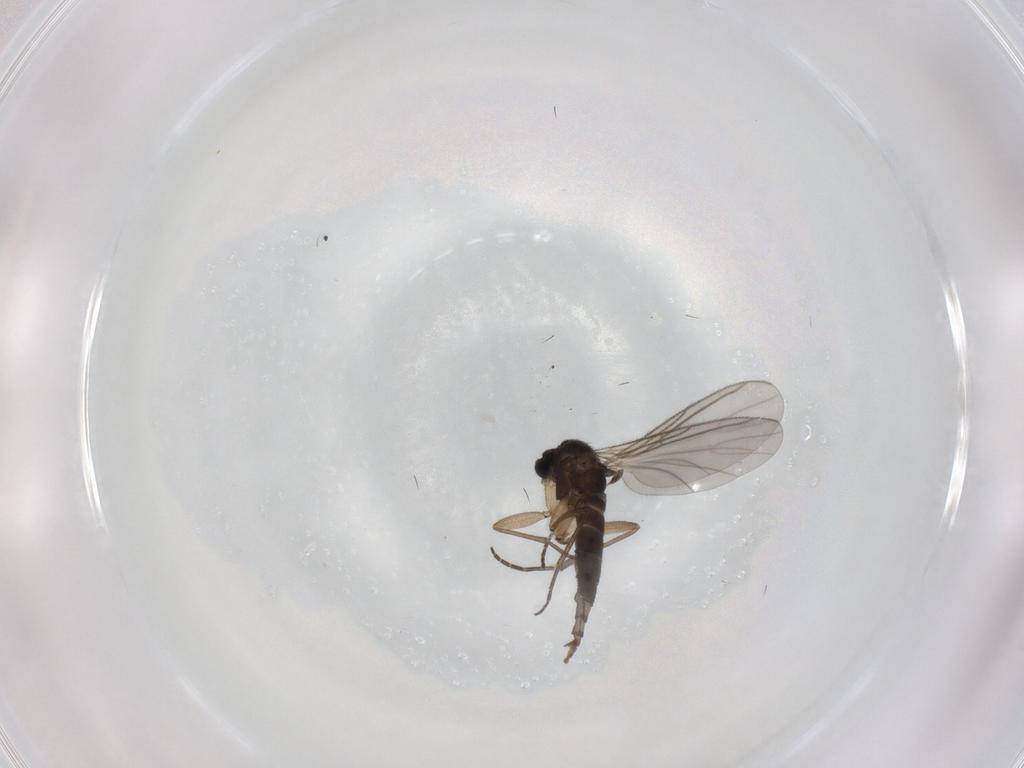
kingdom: Animalia
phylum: Arthropoda
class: Insecta
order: Diptera
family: Sciaridae
